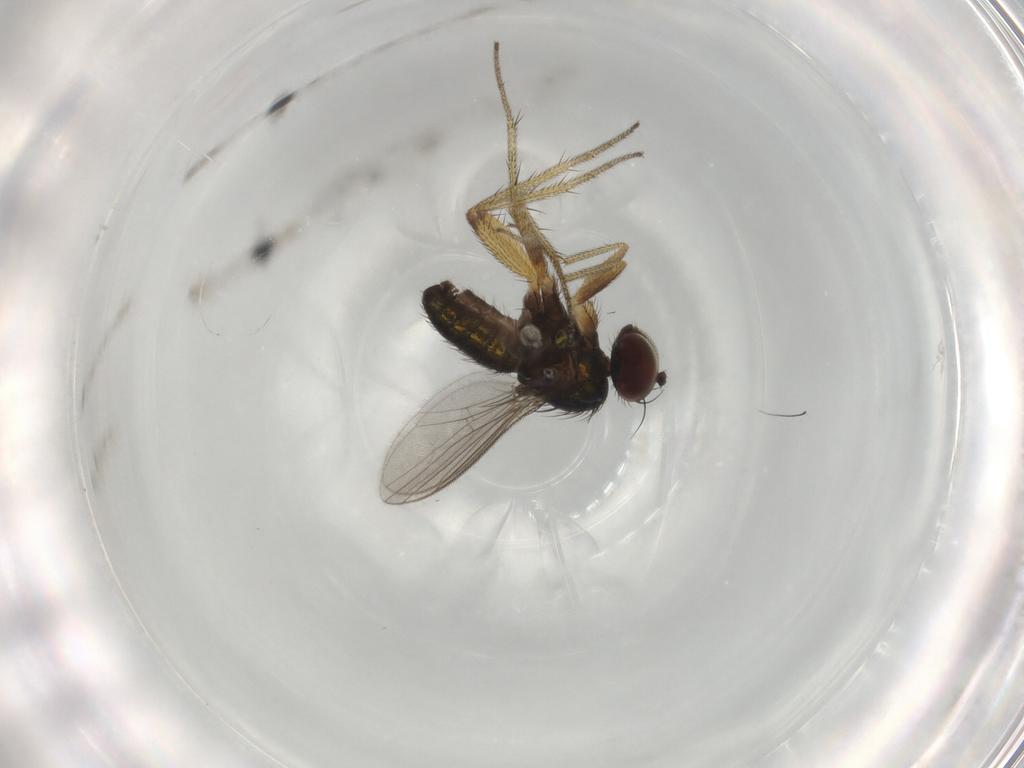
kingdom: Animalia
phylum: Arthropoda
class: Insecta
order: Diptera
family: Dolichopodidae
